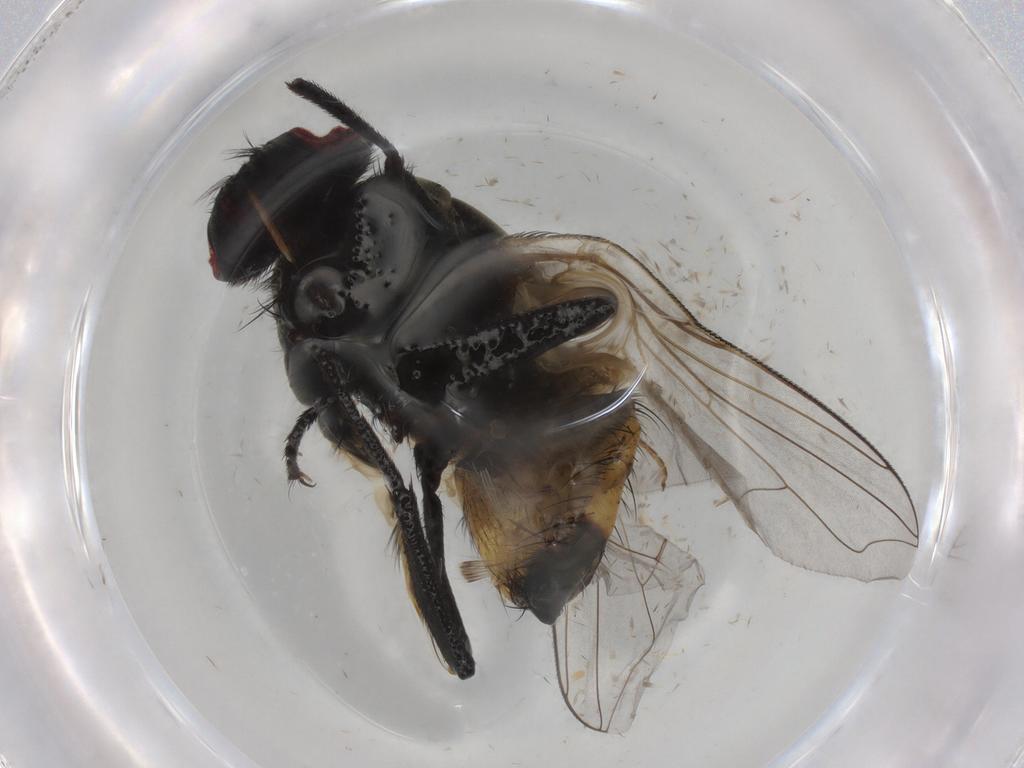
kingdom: Animalia
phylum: Arthropoda
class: Insecta
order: Diptera
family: Dolichopodidae
